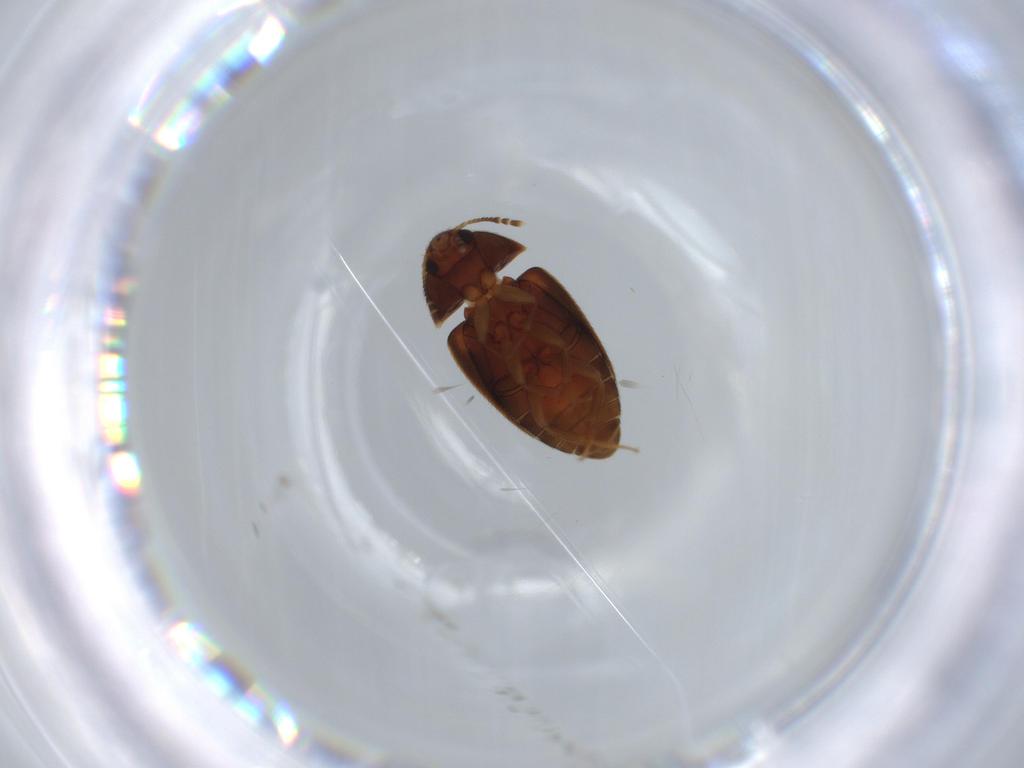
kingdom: Animalia
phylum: Arthropoda
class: Insecta
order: Coleoptera
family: Mycetophagidae
